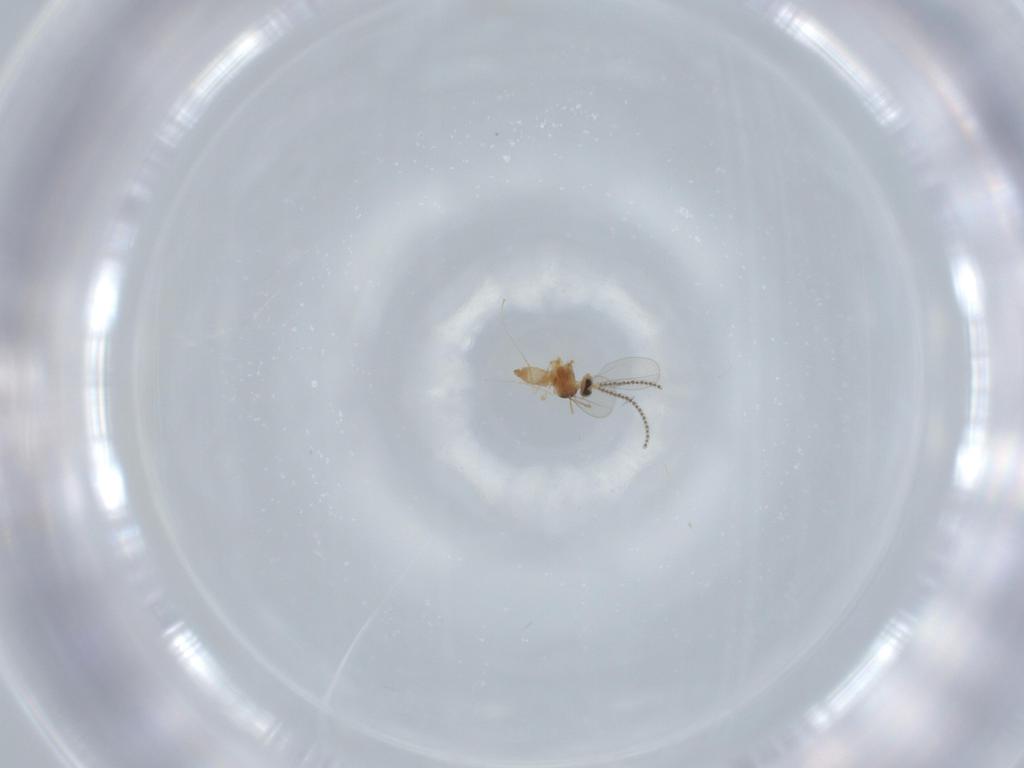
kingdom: Animalia
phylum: Arthropoda
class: Insecta
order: Diptera
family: Cecidomyiidae
